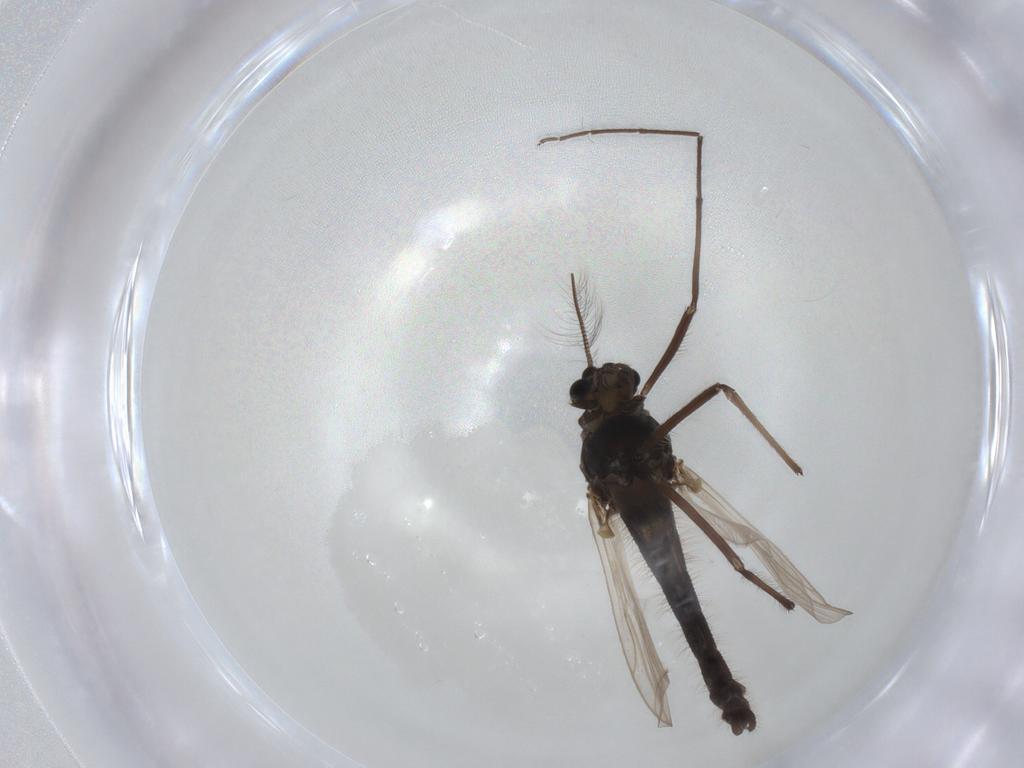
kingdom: Animalia
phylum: Arthropoda
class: Insecta
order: Diptera
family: Chironomidae
